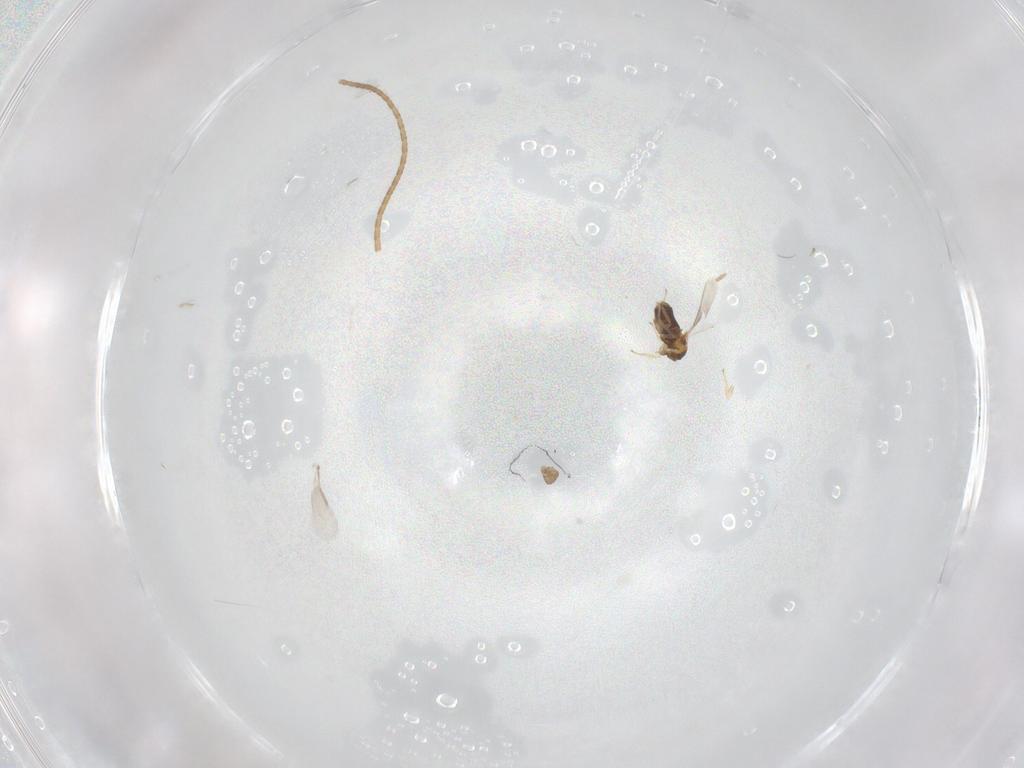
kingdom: Animalia
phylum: Arthropoda
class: Insecta
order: Hymenoptera
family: Aphelinidae
